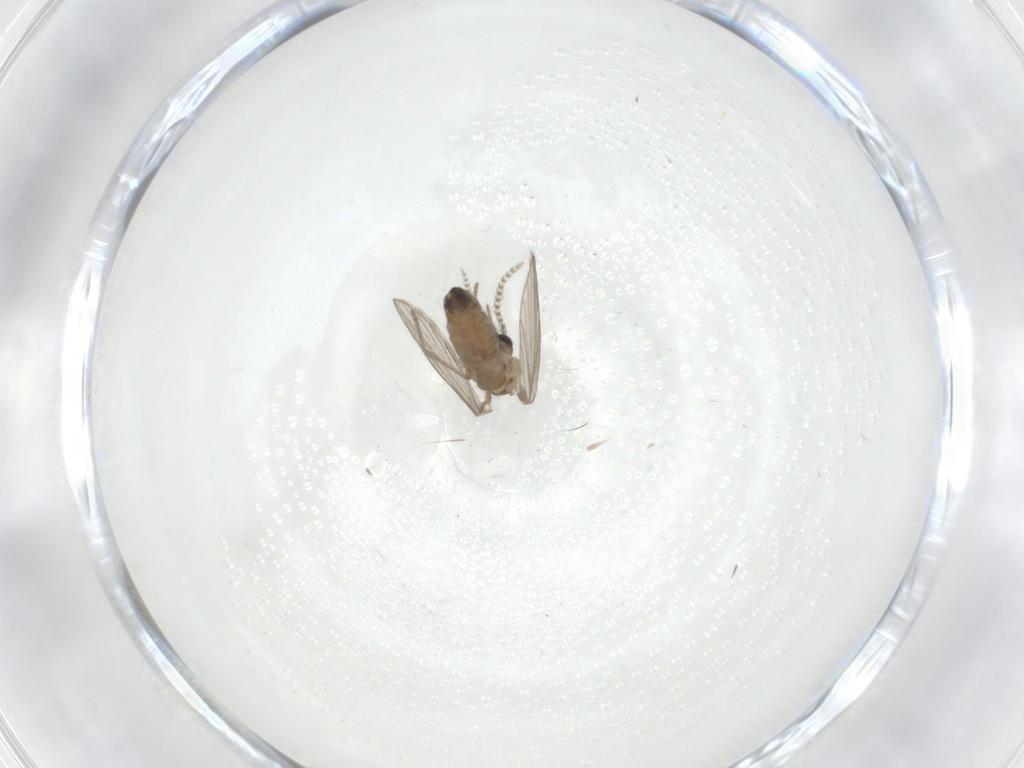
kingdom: Animalia
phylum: Arthropoda
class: Insecta
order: Diptera
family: Psychodidae
